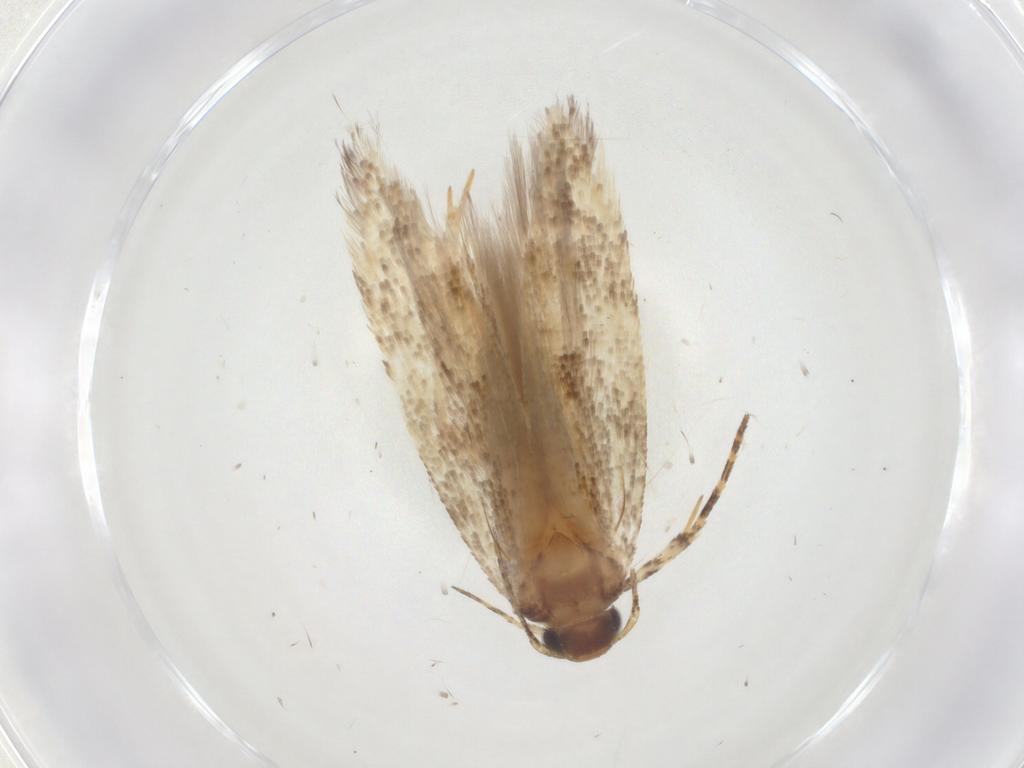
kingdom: Animalia
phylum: Arthropoda
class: Insecta
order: Lepidoptera
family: Gelechiidae
